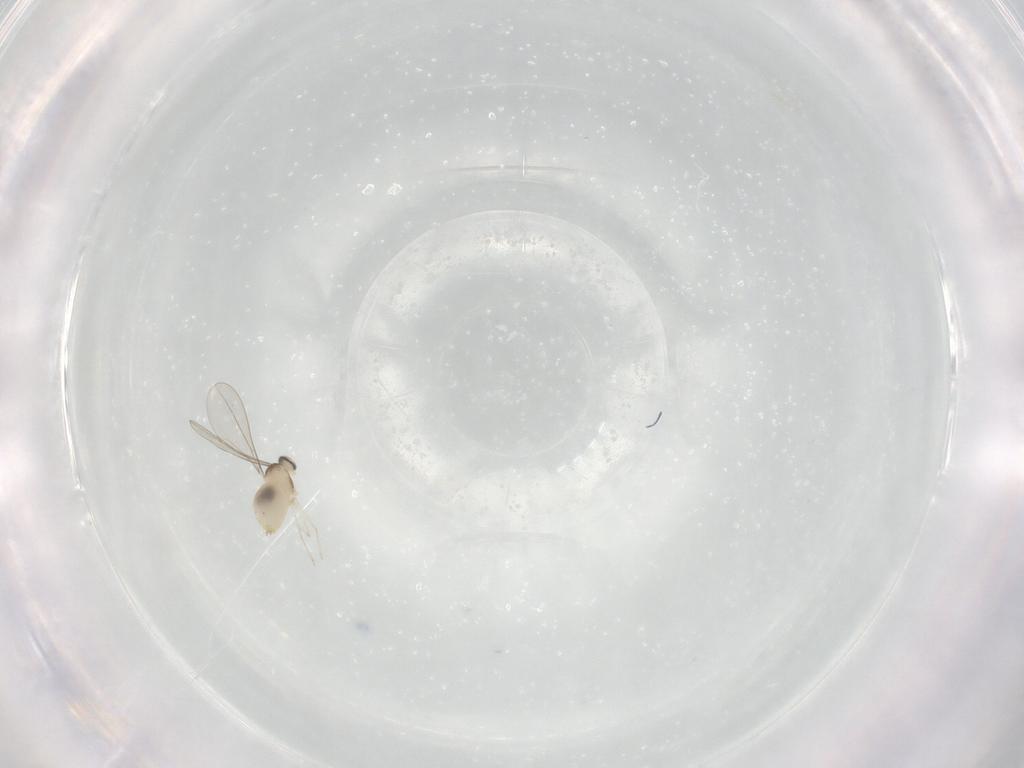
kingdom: Animalia
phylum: Arthropoda
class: Insecta
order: Diptera
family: Cecidomyiidae
